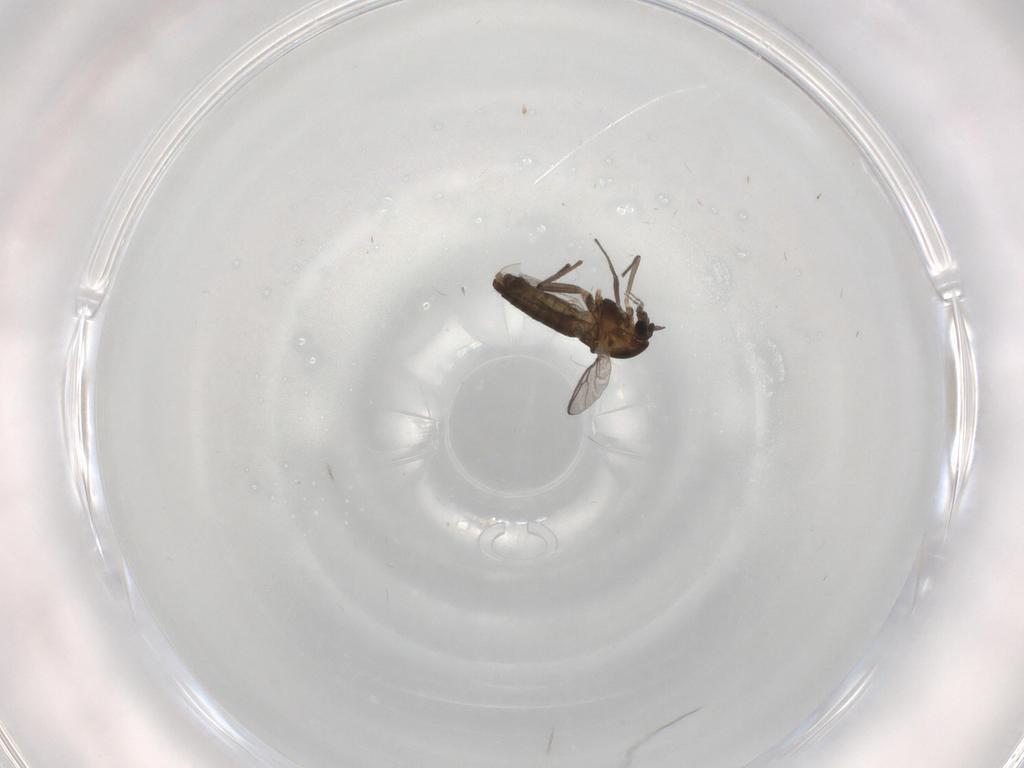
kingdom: Animalia
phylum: Arthropoda
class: Insecta
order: Diptera
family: Chironomidae
